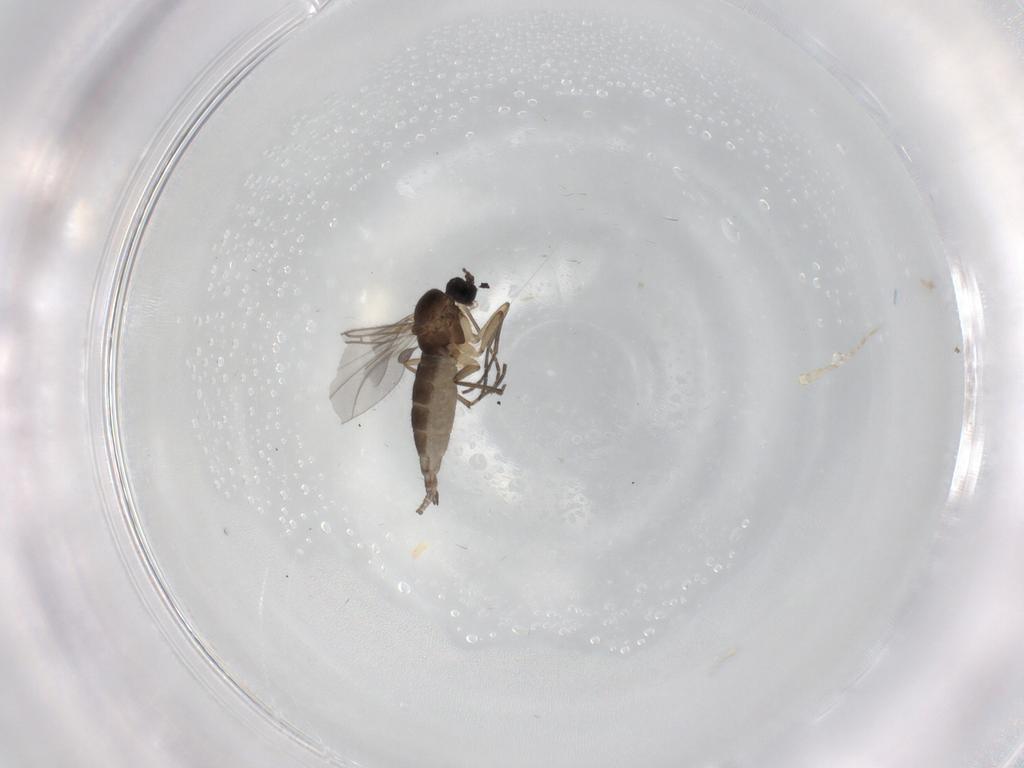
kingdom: Animalia
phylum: Arthropoda
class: Insecta
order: Diptera
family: Sciaridae
